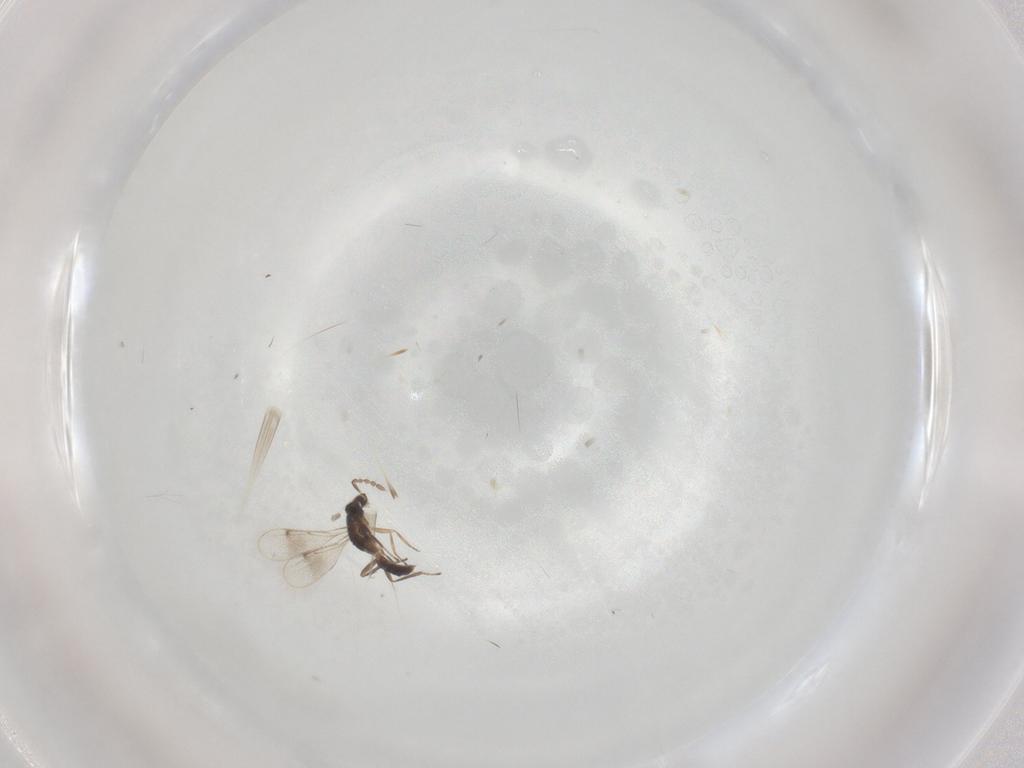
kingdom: Animalia
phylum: Arthropoda
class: Insecta
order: Hymenoptera
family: Eulophidae
